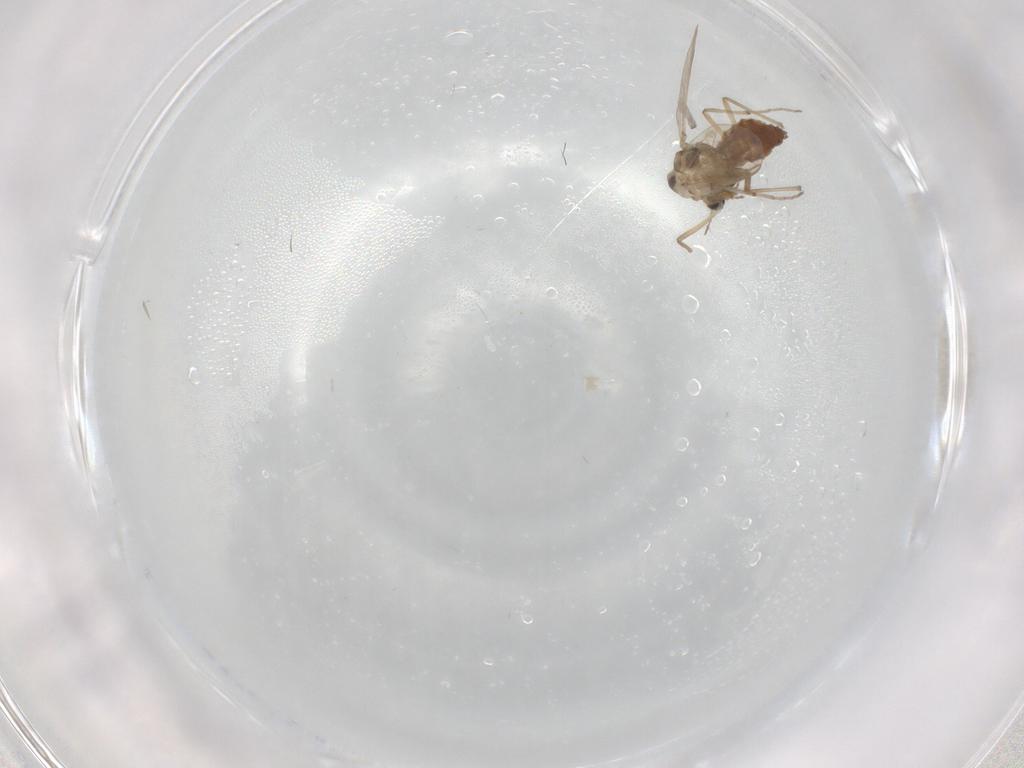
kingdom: Animalia
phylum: Arthropoda
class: Insecta
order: Diptera
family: Chironomidae
